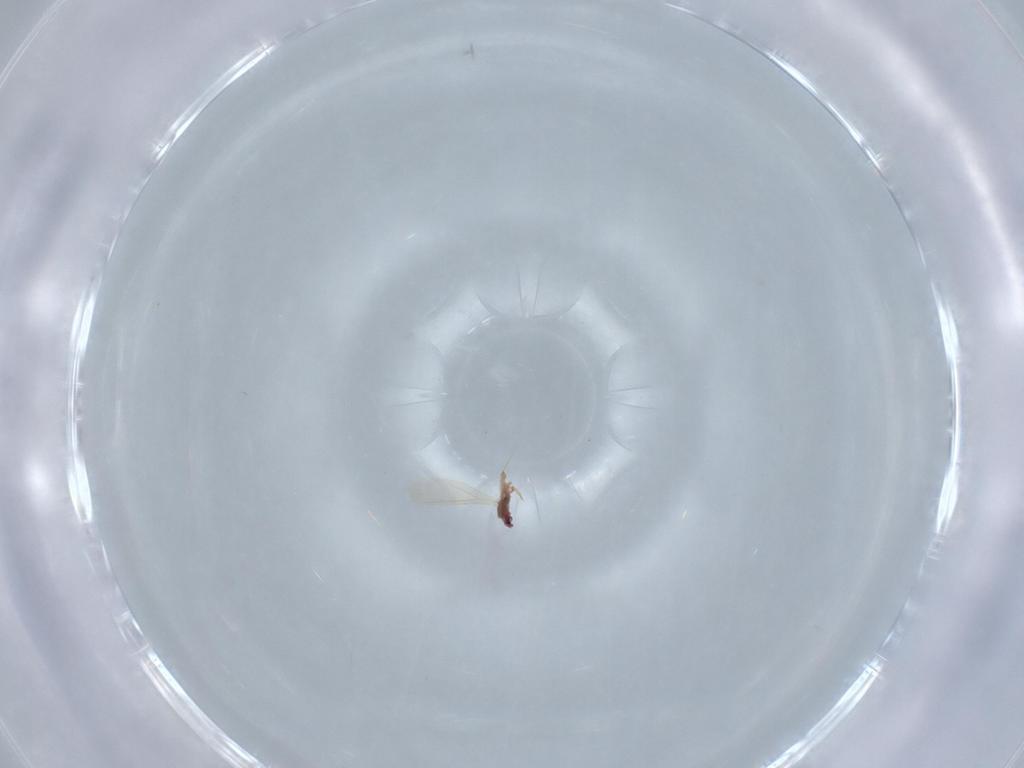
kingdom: Animalia
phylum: Arthropoda
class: Insecta
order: Hemiptera
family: Diaspididae
